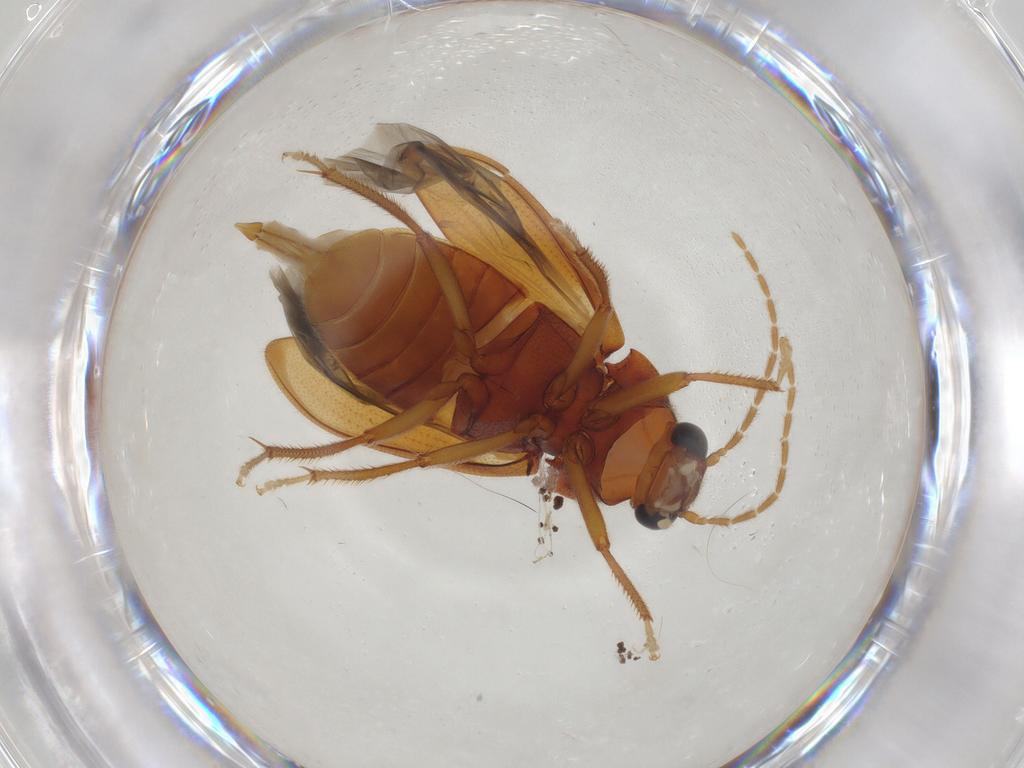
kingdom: Animalia
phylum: Arthropoda
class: Insecta
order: Coleoptera
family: Ptilodactylidae
